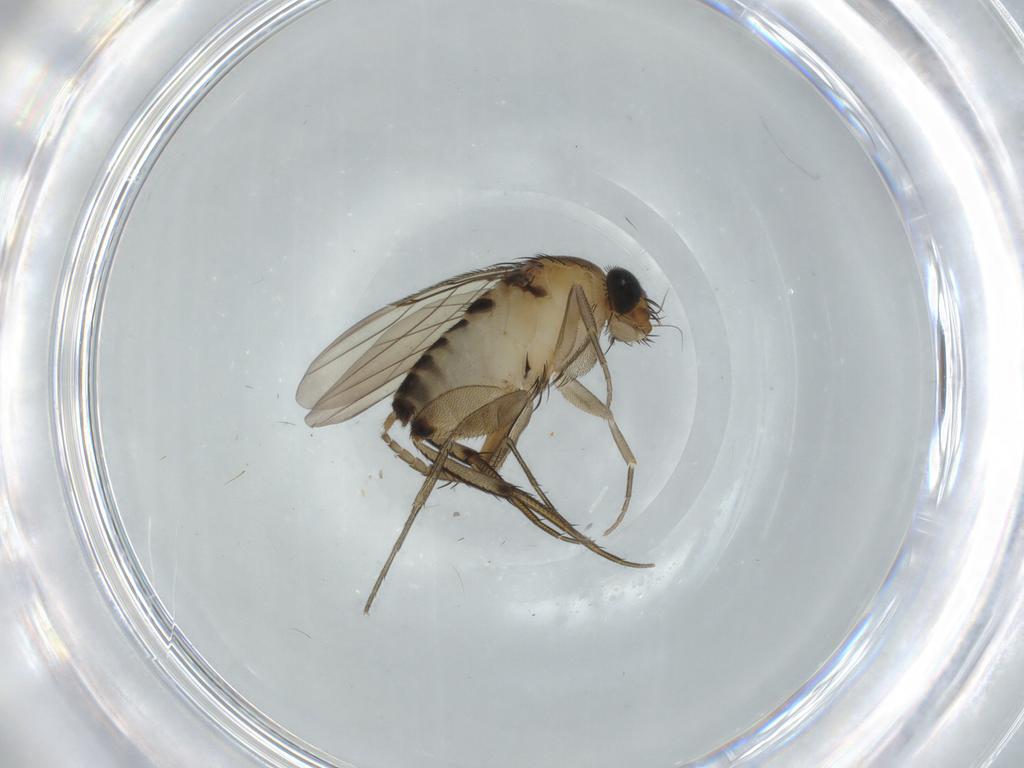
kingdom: Animalia
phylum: Arthropoda
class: Insecta
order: Diptera
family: Phoridae
